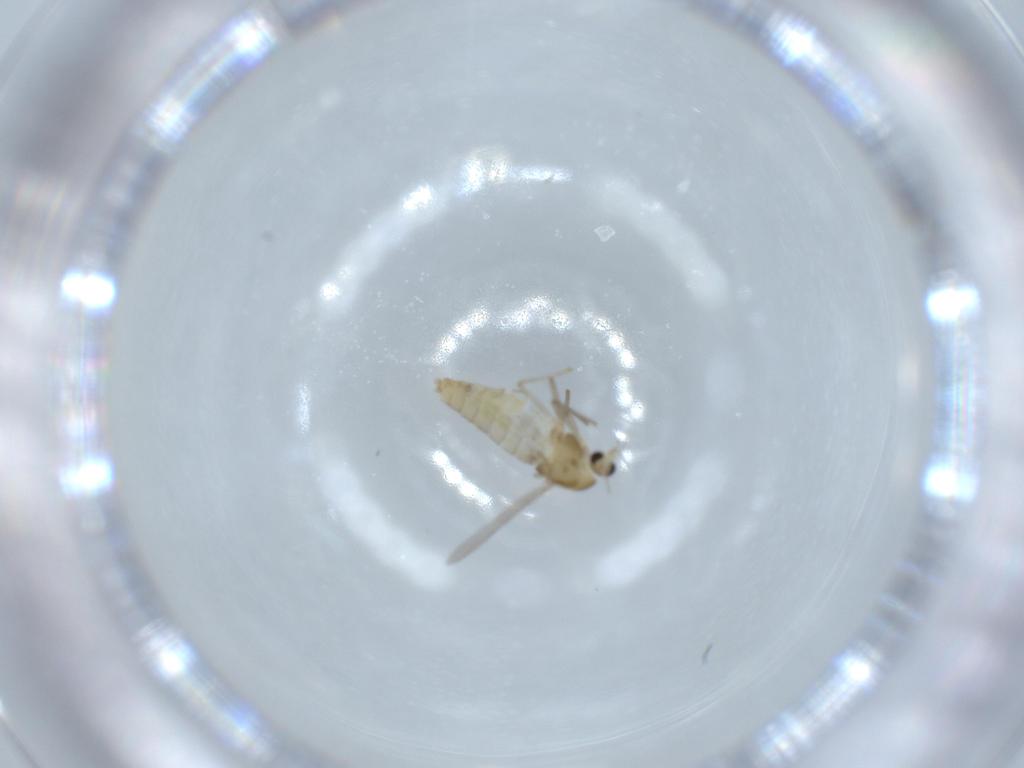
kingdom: Animalia
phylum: Arthropoda
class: Insecta
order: Diptera
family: Chironomidae
